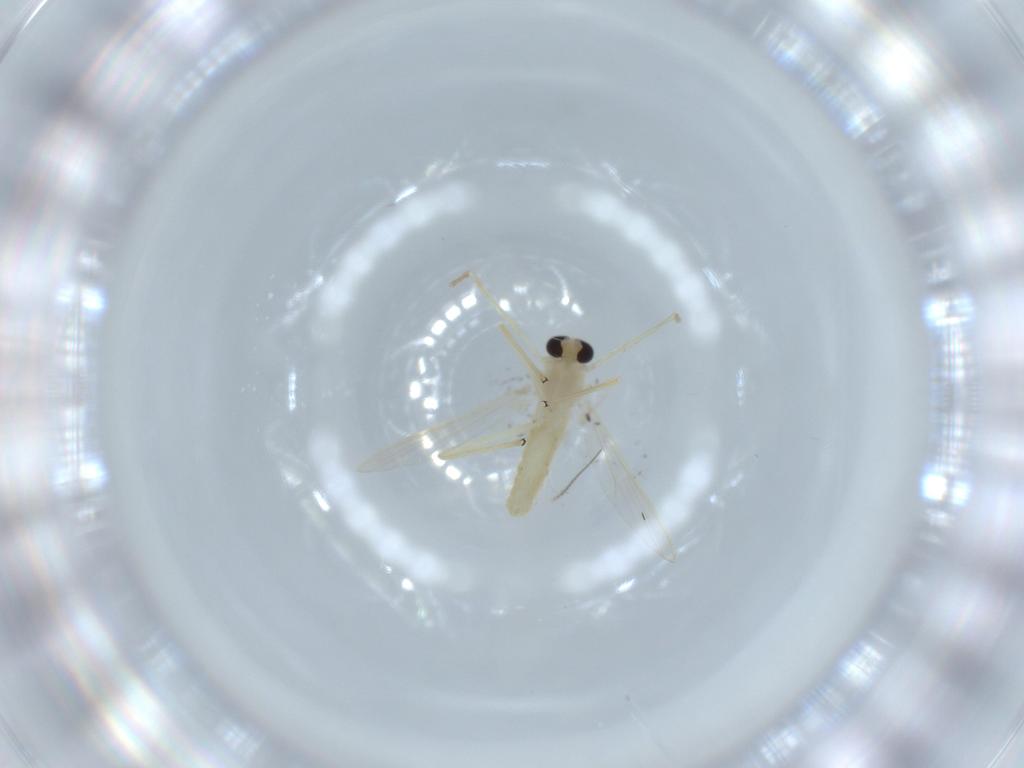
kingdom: Animalia
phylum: Arthropoda
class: Insecta
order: Diptera
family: Chironomidae
